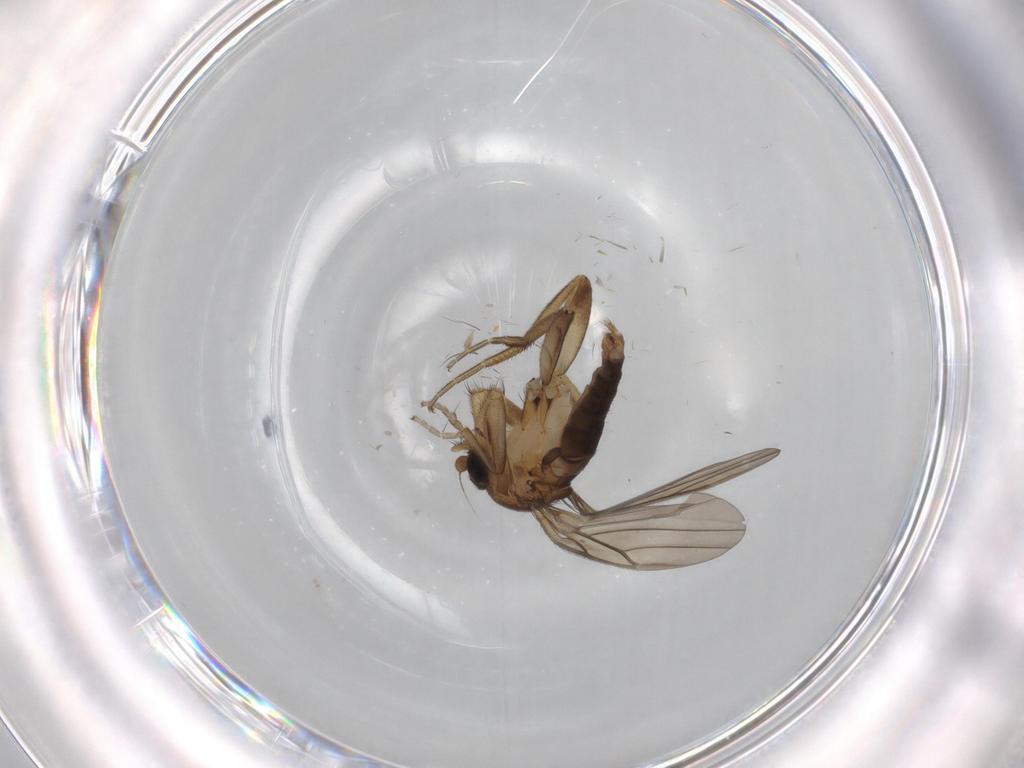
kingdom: Animalia
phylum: Arthropoda
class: Insecta
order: Diptera
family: Phoridae
